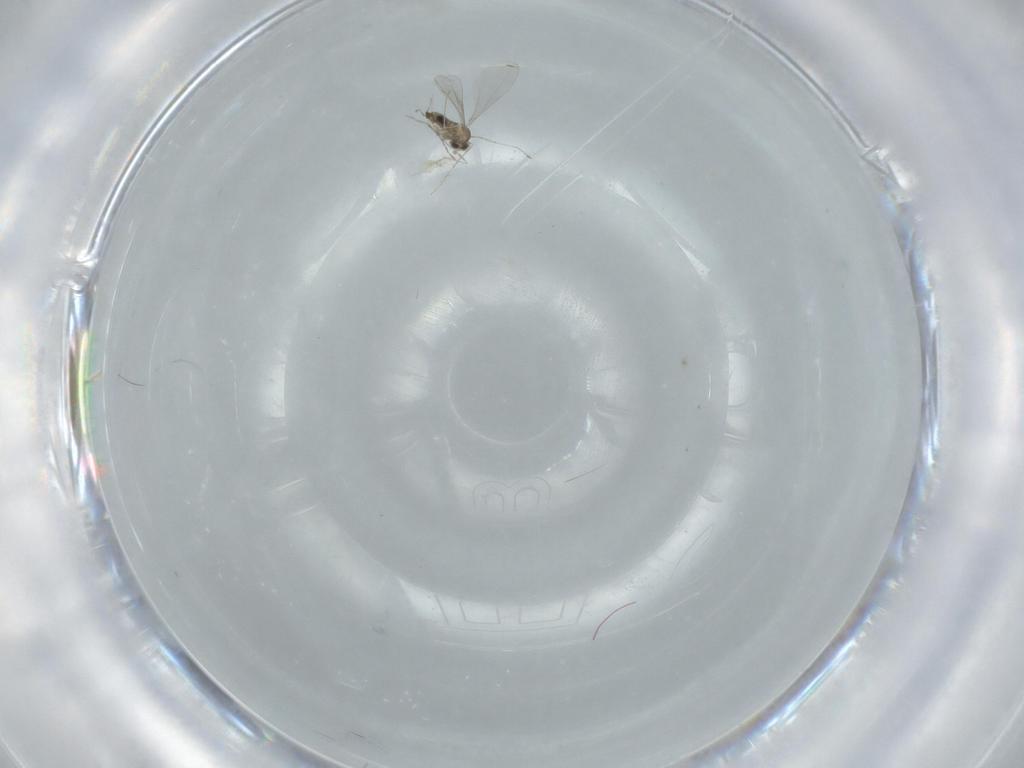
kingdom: Animalia
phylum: Arthropoda
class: Insecta
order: Diptera
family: Cecidomyiidae
